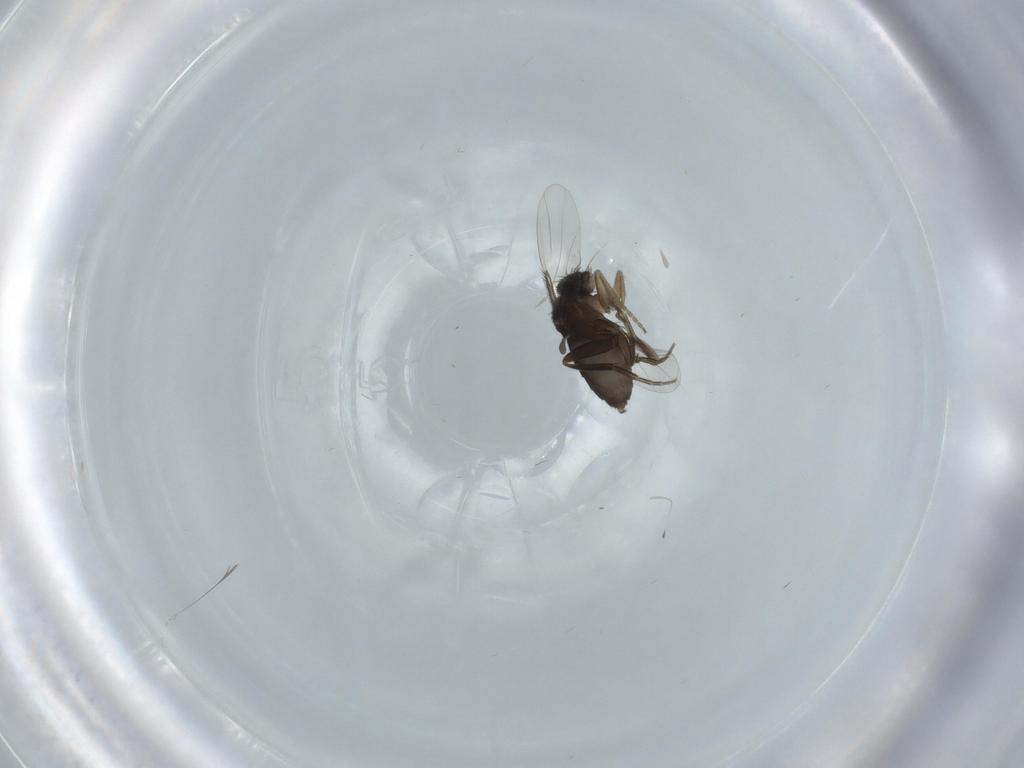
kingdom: Animalia
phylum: Arthropoda
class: Insecta
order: Diptera
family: Phoridae
